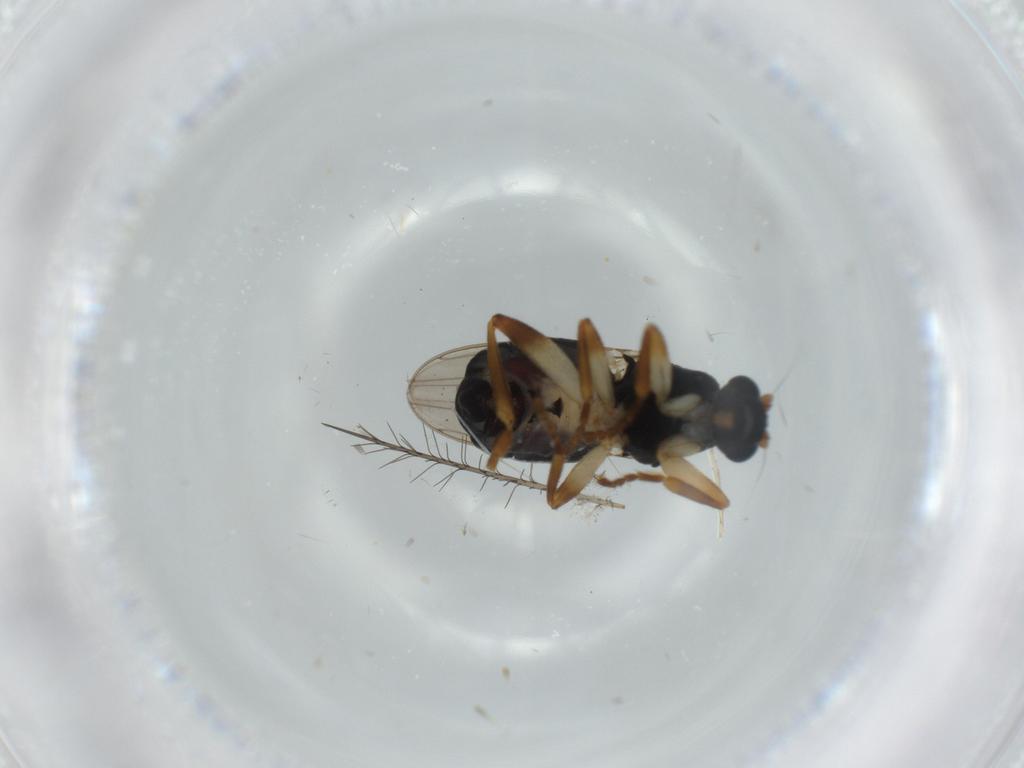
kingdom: Animalia
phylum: Arthropoda
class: Insecta
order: Diptera
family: Sphaeroceridae
